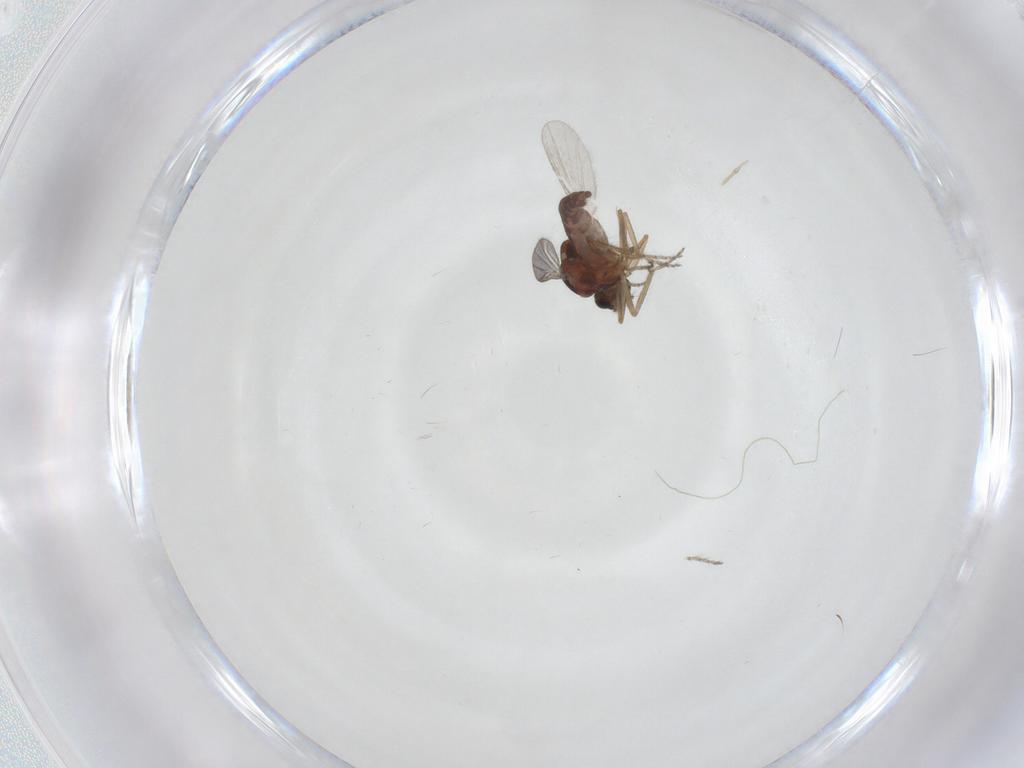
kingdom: Animalia
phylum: Arthropoda
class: Insecta
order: Diptera
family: Ceratopogonidae
